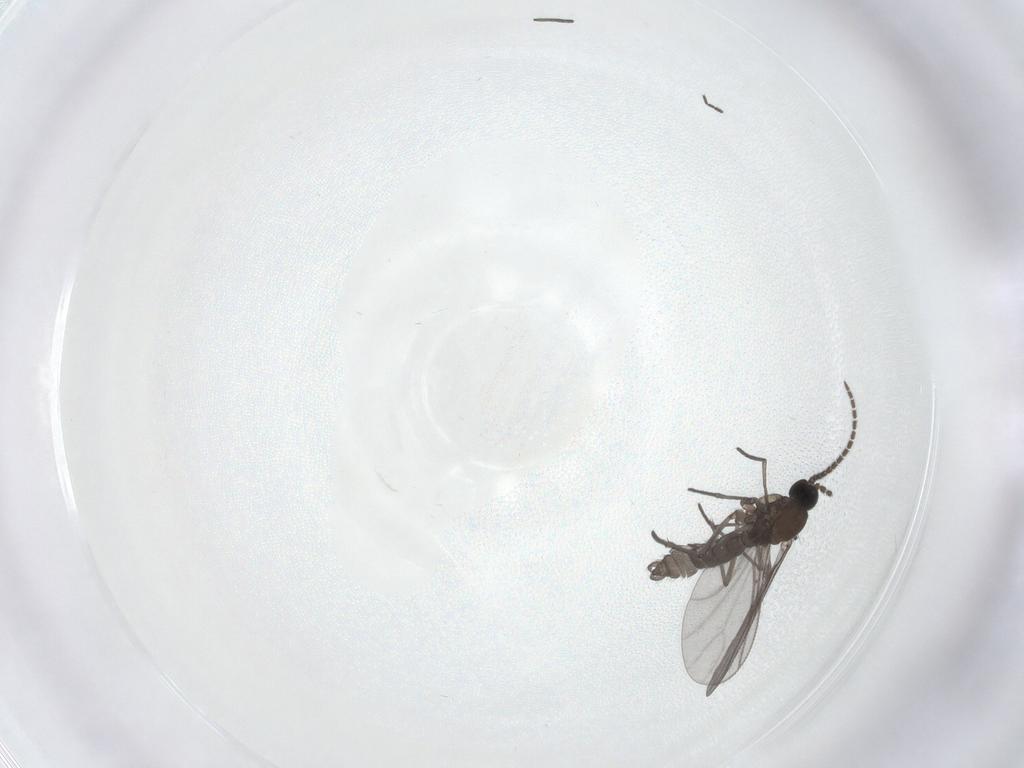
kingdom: Animalia
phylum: Arthropoda
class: Insecta
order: Diptera
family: Sciaridae
